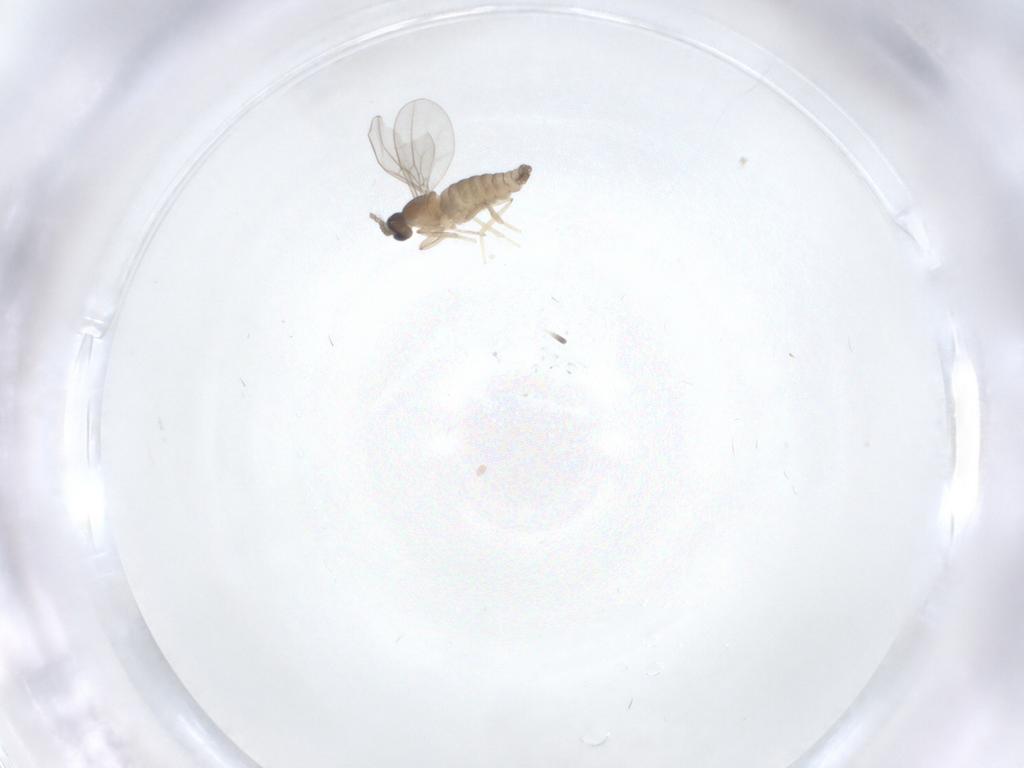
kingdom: Animalia
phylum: Arthropoda
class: Insecta
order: Diptera
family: Cecidomyiidae
